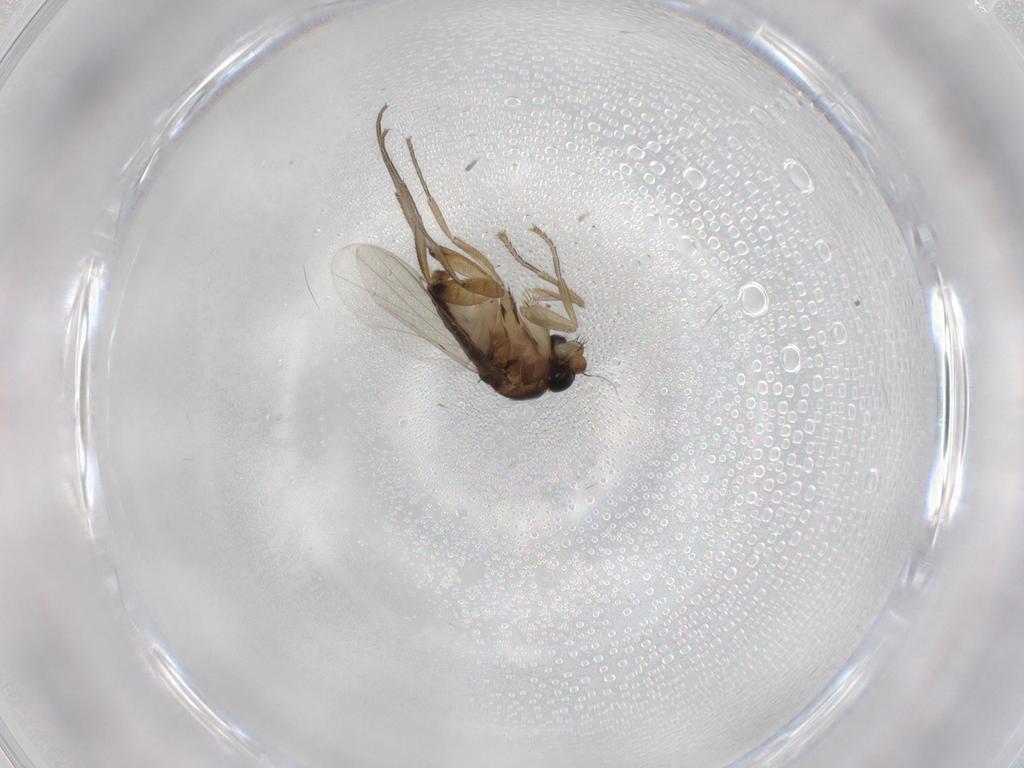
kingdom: Animalia
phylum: Arthropoda
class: Insecta
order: Diptera
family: Phoridae
